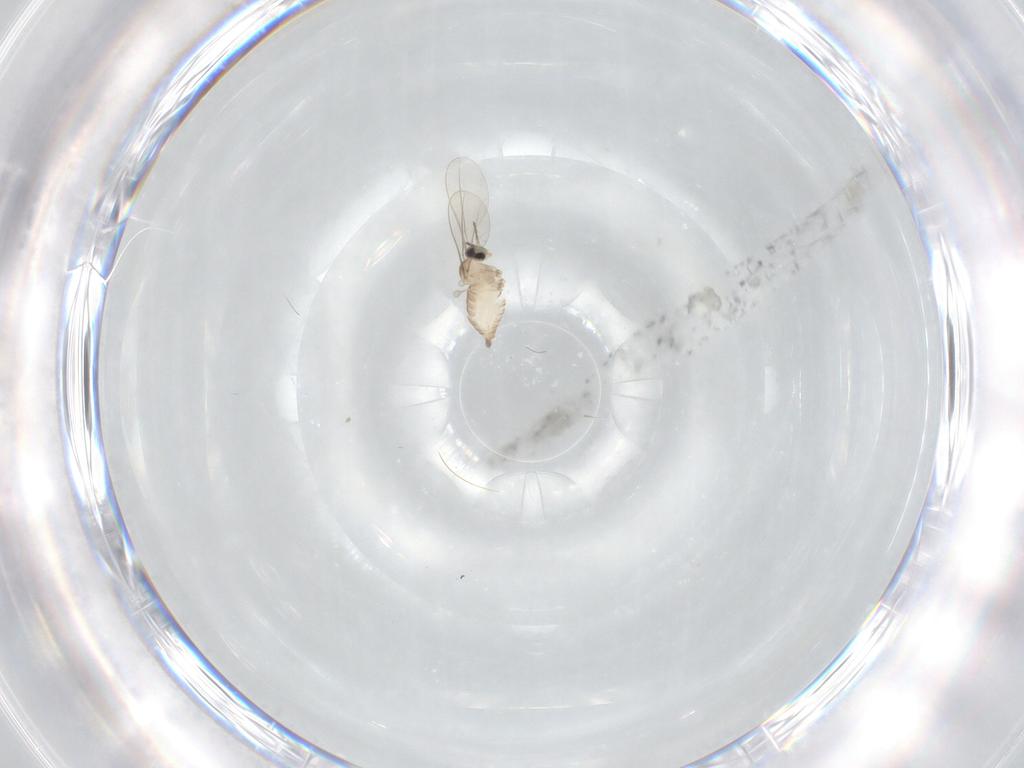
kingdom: Animalia
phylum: Arthropoda
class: Insecta
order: Diptera
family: Cecidomyiidae
